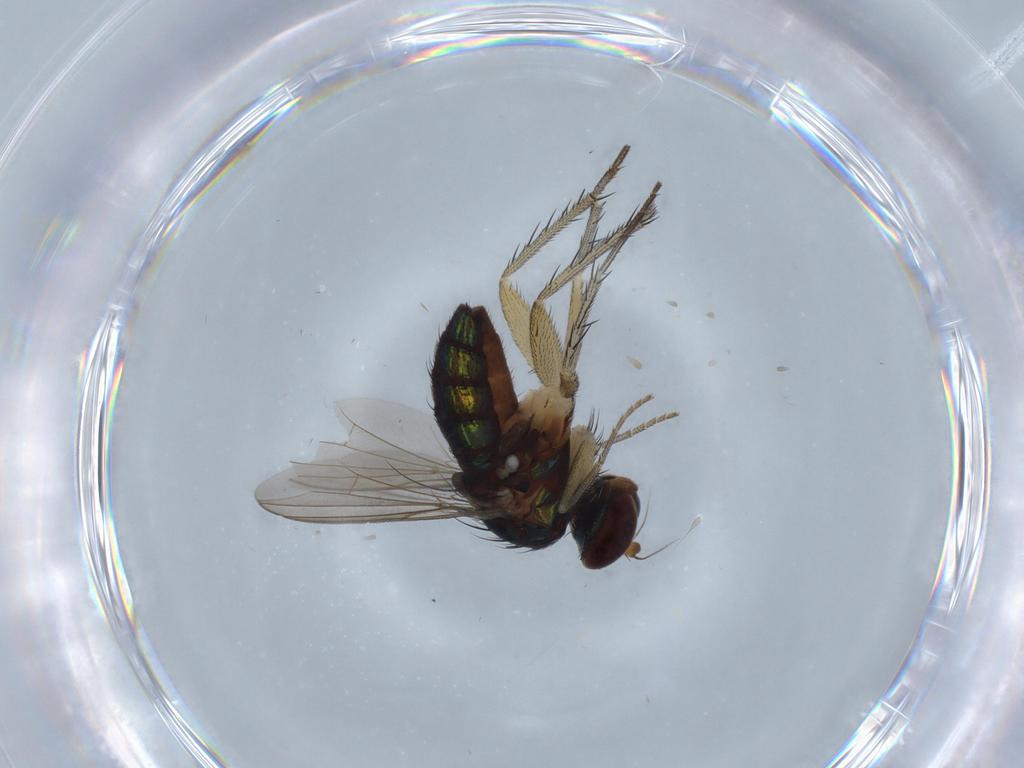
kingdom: Animalia
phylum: Arthropoda
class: Insecta
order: Diptera
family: Dolichopodidae
